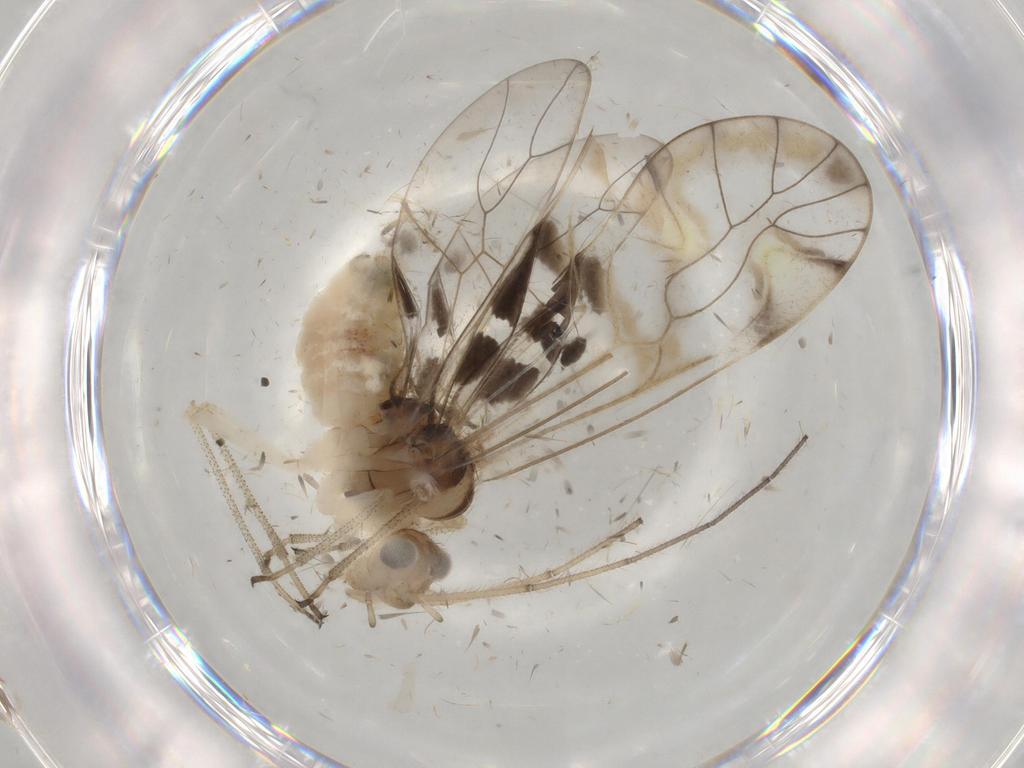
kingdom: Animalia
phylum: Arthropoda
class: Insecta
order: Psocodea
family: Amphipsocidae
